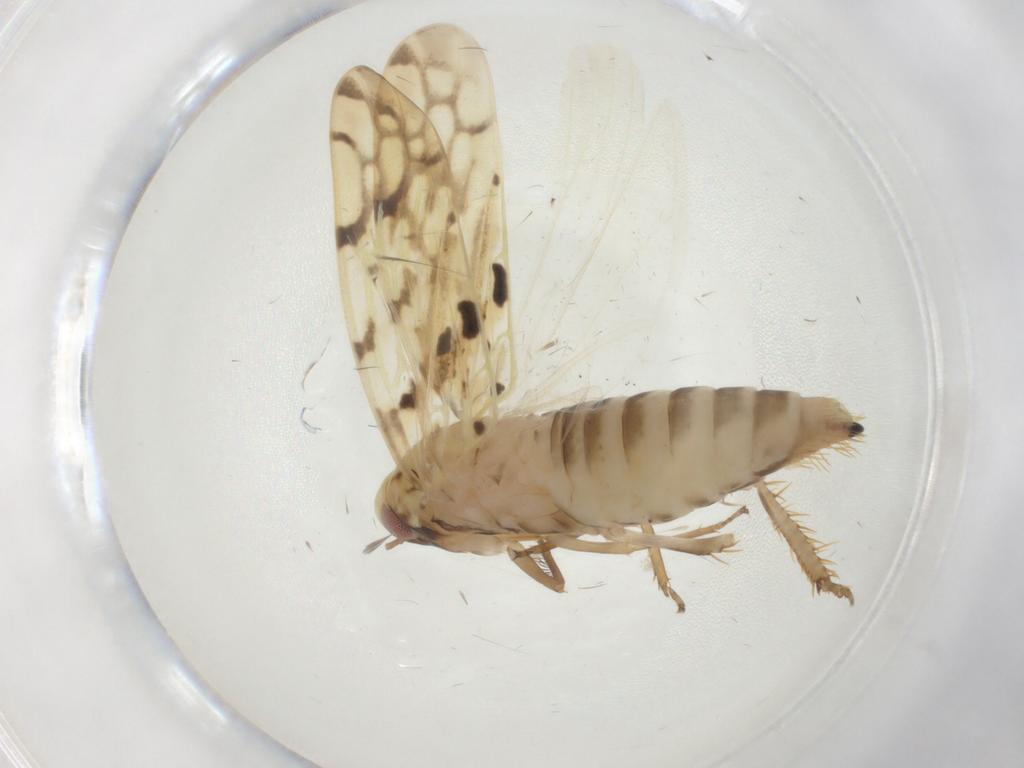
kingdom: Animalia
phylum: Arthropoda
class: Insecta
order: Hemiptera
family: Cicadellidae
